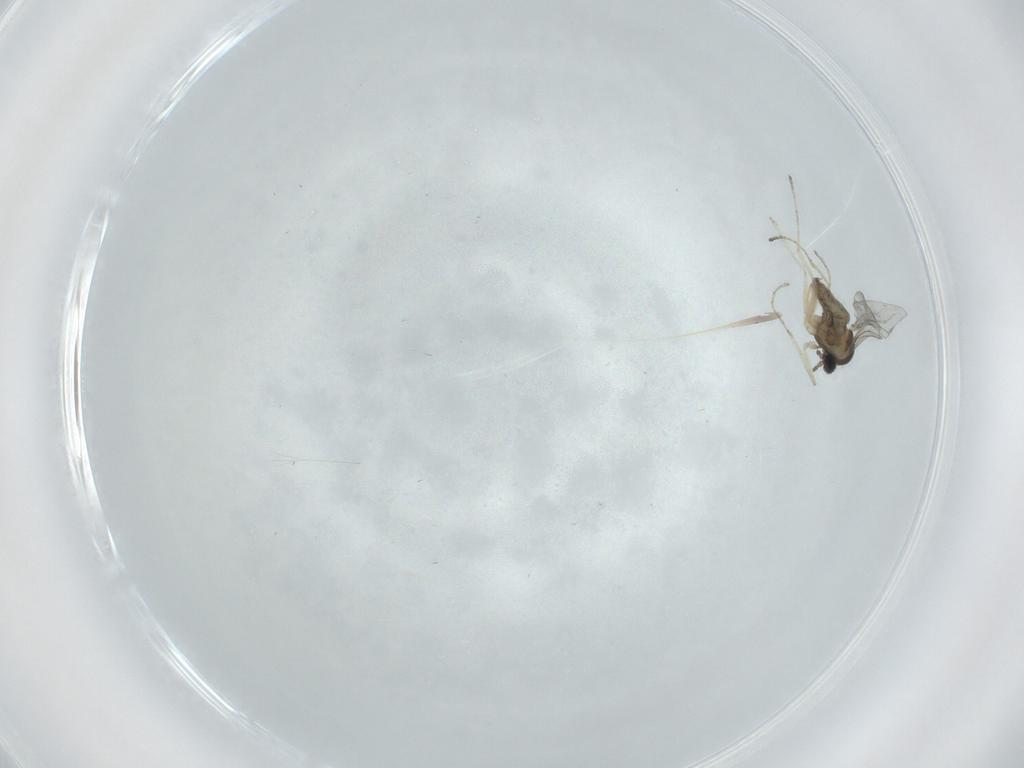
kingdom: Animalia
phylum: Arthropoda
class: Insecta
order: Diptera
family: Cecidomyiidae
